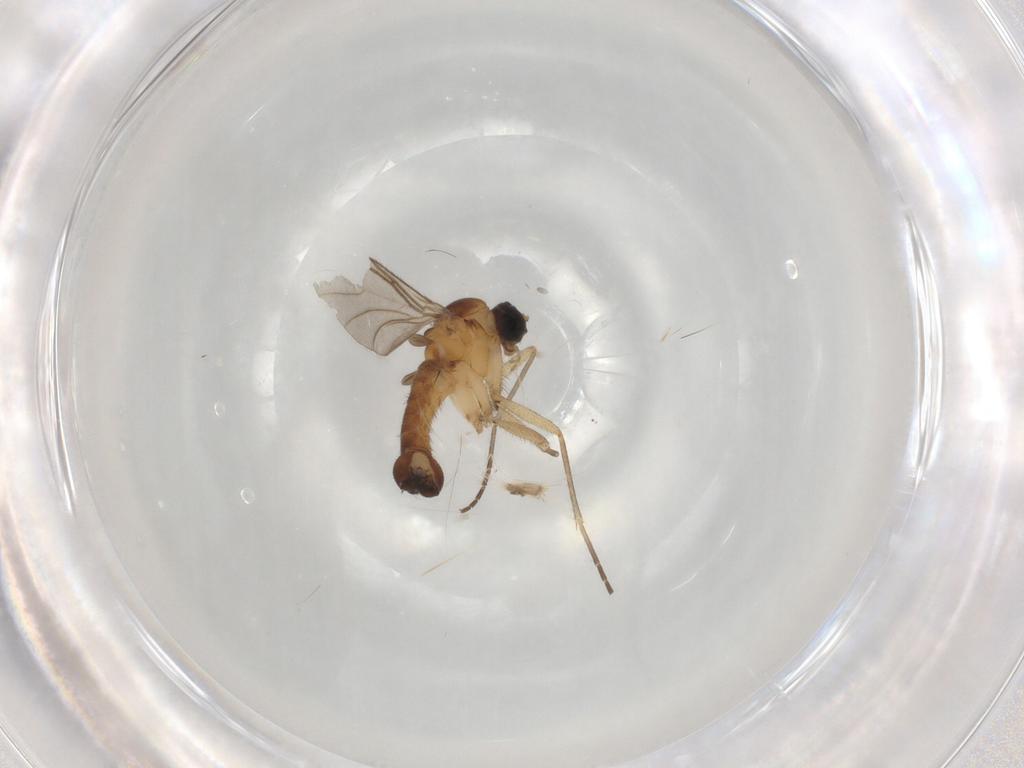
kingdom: Animalia
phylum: Arthropoda
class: Insecta
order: Diptera
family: Sciaridae
